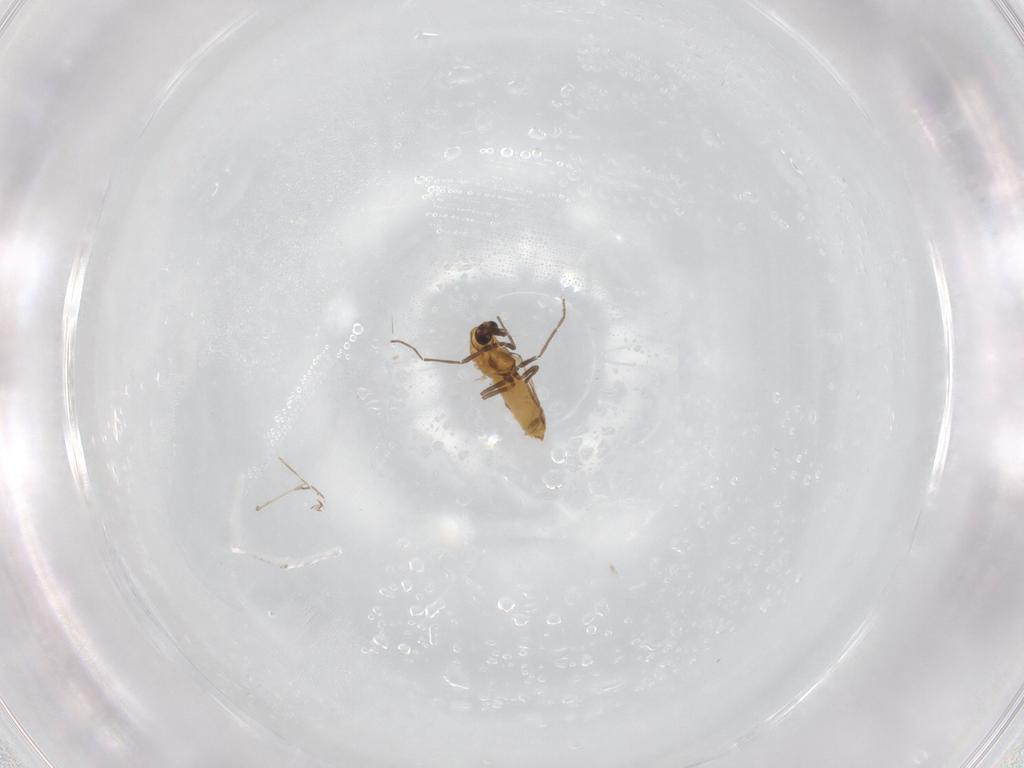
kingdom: Animalia
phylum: Arthropoda
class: Insecta
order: Diptera
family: Chironomidae
